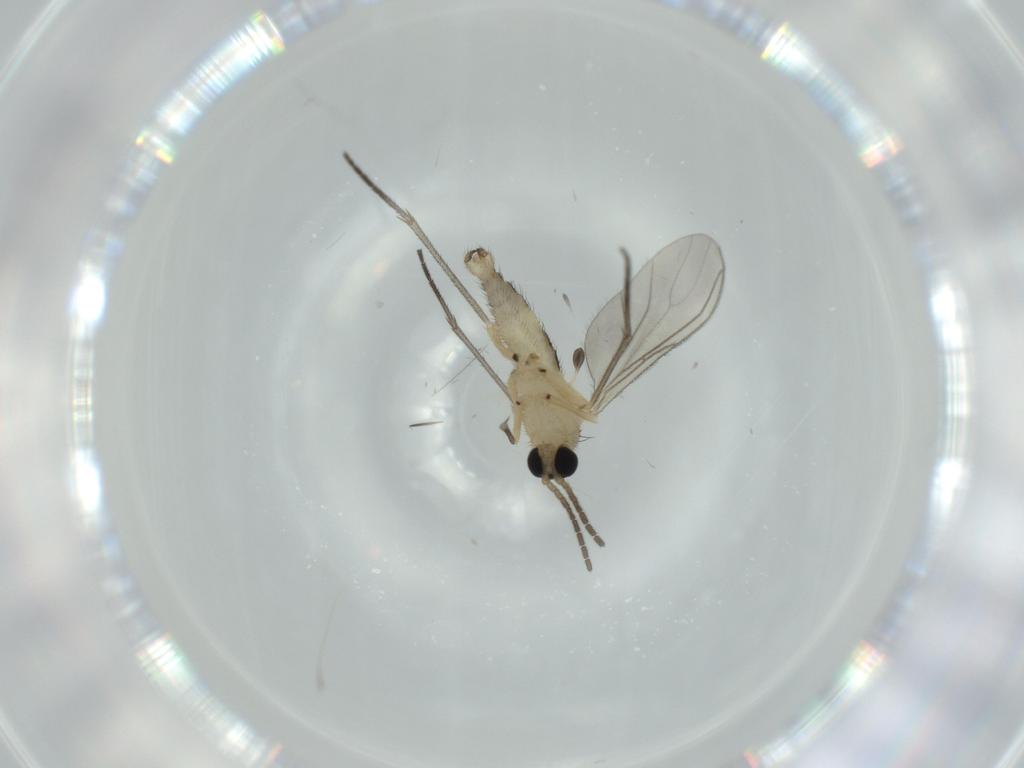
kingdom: Animalia
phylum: Arthropoda
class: Insecta
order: Diptera
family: Sciaridae
